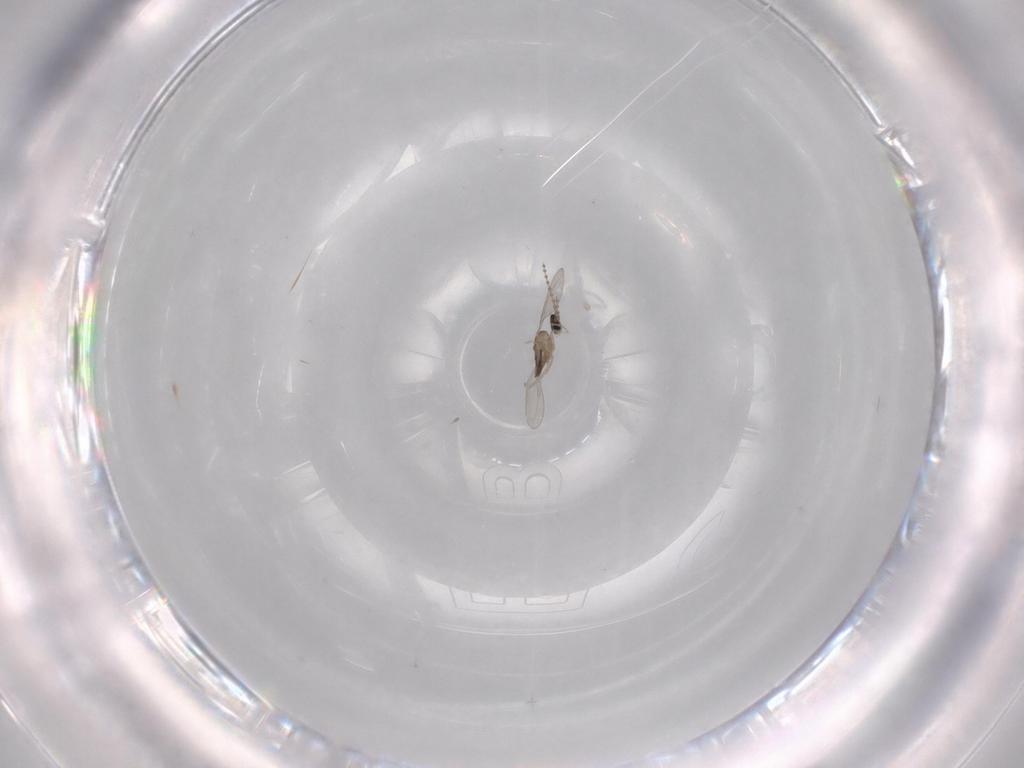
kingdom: Animalia
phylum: Arthropoda
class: Insecta
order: Diptera
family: Cecidomyiidae
